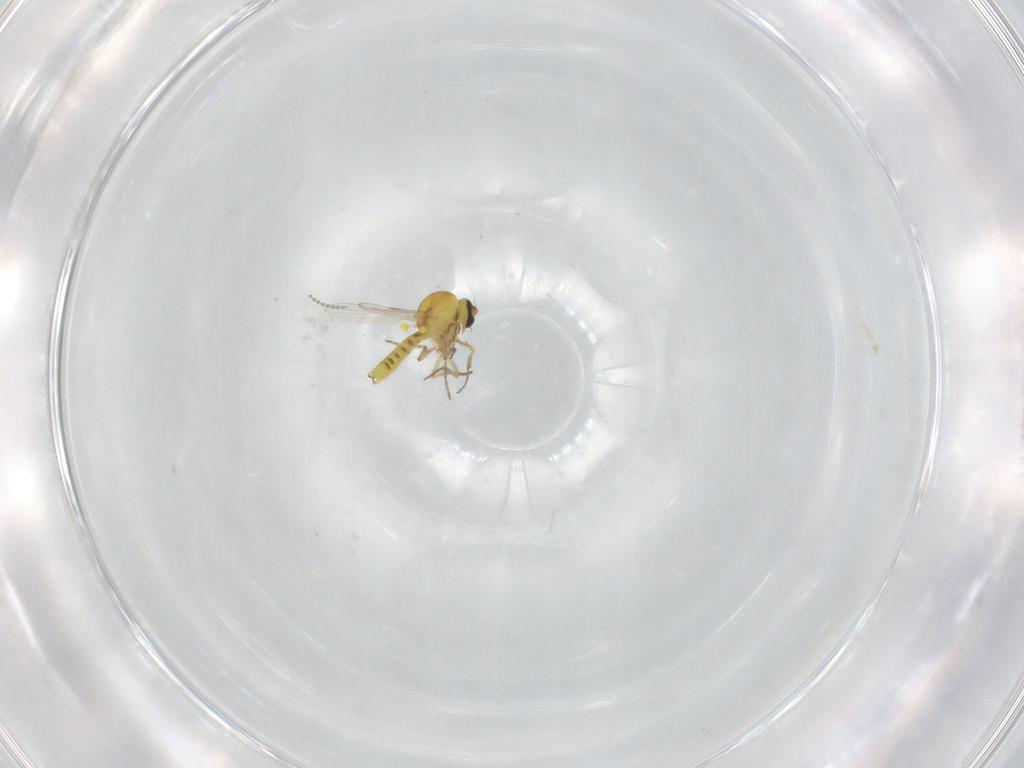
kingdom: Animalia
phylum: Arthropoda
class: Insecta
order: Diptera
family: Ceratopogonidae
